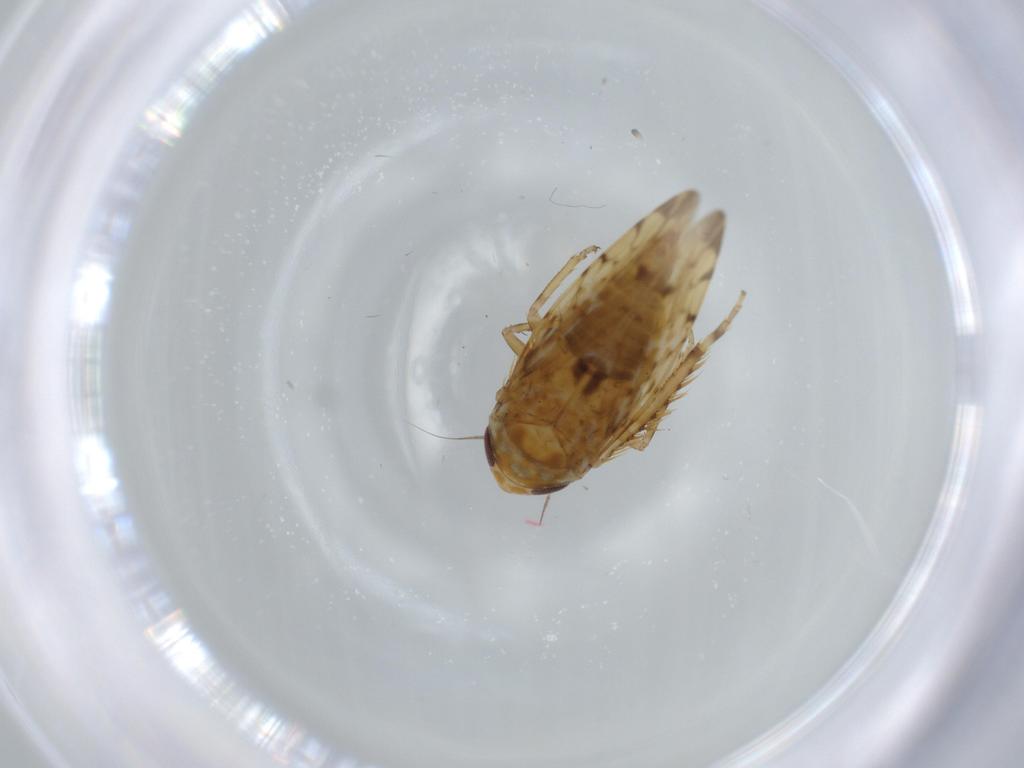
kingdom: Animalia
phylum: Arthropoda
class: Insecta
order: Hemiptera
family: Cicadellidae
